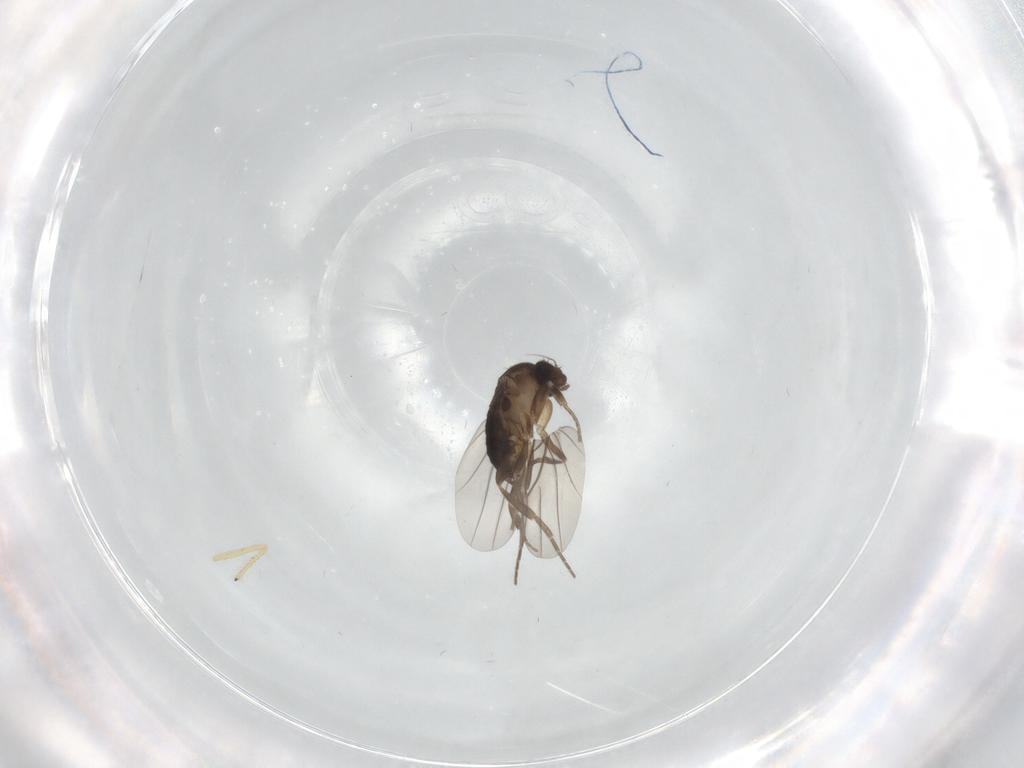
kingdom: Animalia
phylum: Arthropoda
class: Insecta
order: Diptera
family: Chironomidae
